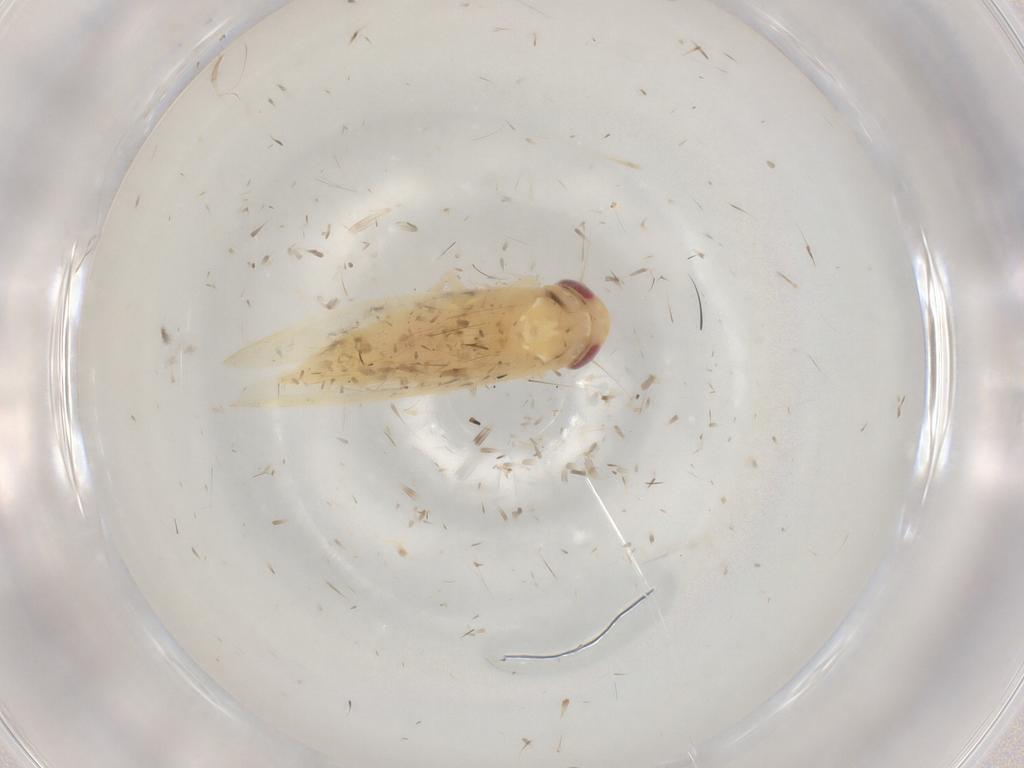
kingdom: Animalia
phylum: Arthropoda
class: Insecta
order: Hemiptera
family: Cicadellidae
